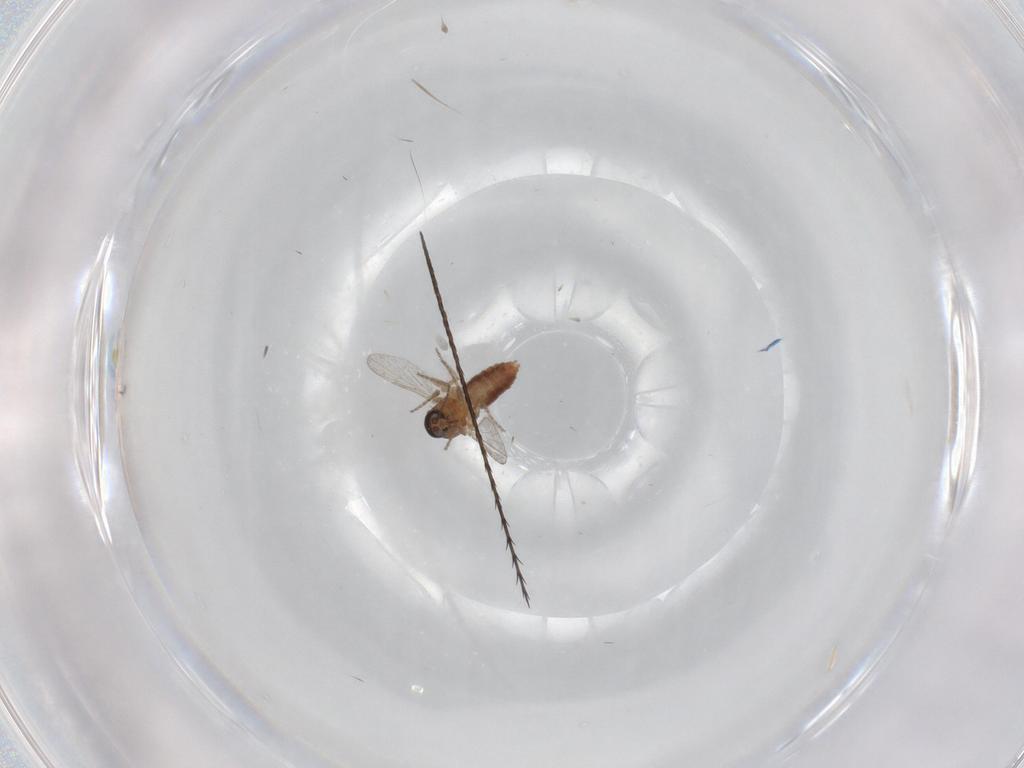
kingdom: Animalia
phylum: Arthropoda
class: Insecta
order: Diptera
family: Ceratopogonidae
